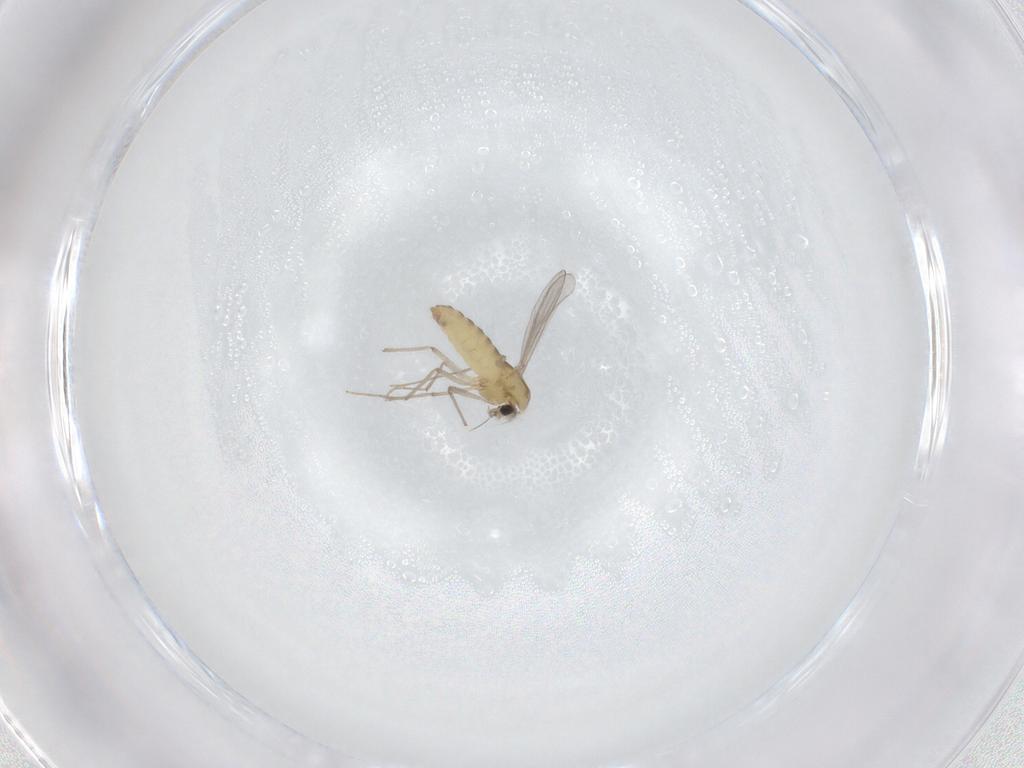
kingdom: Animalia
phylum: Arthropoda
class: Insecta
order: Diptera
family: Chironomidae
